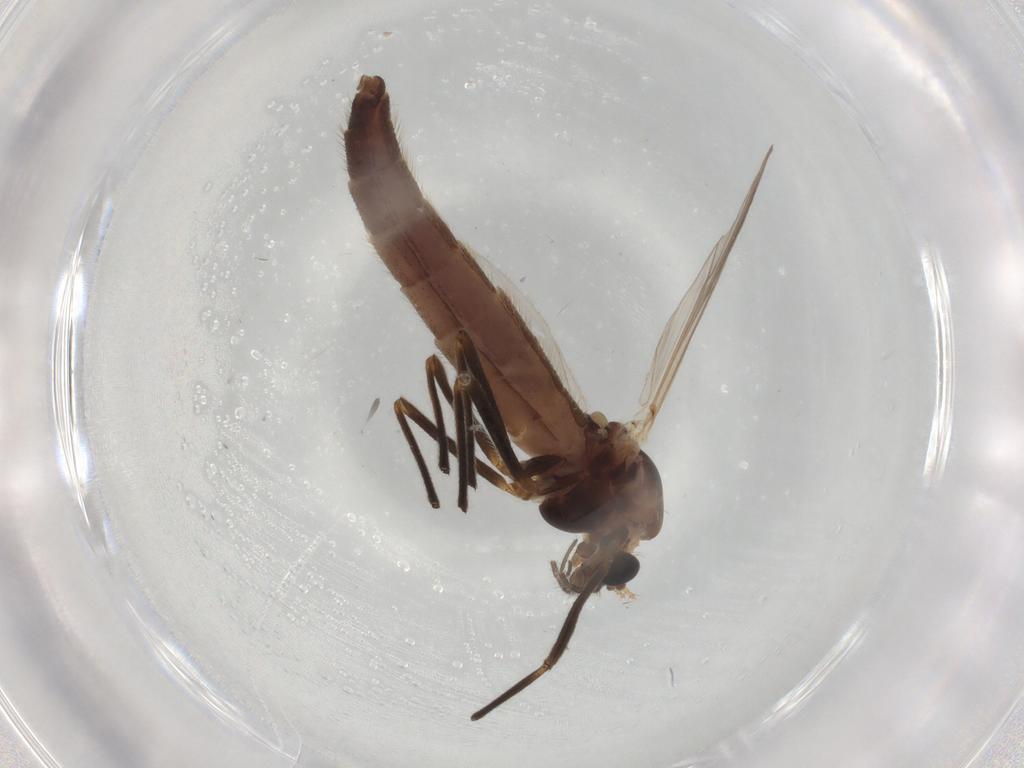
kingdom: Animalia
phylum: Arthropoda
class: Insecta
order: Diptera
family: Chironomidae
